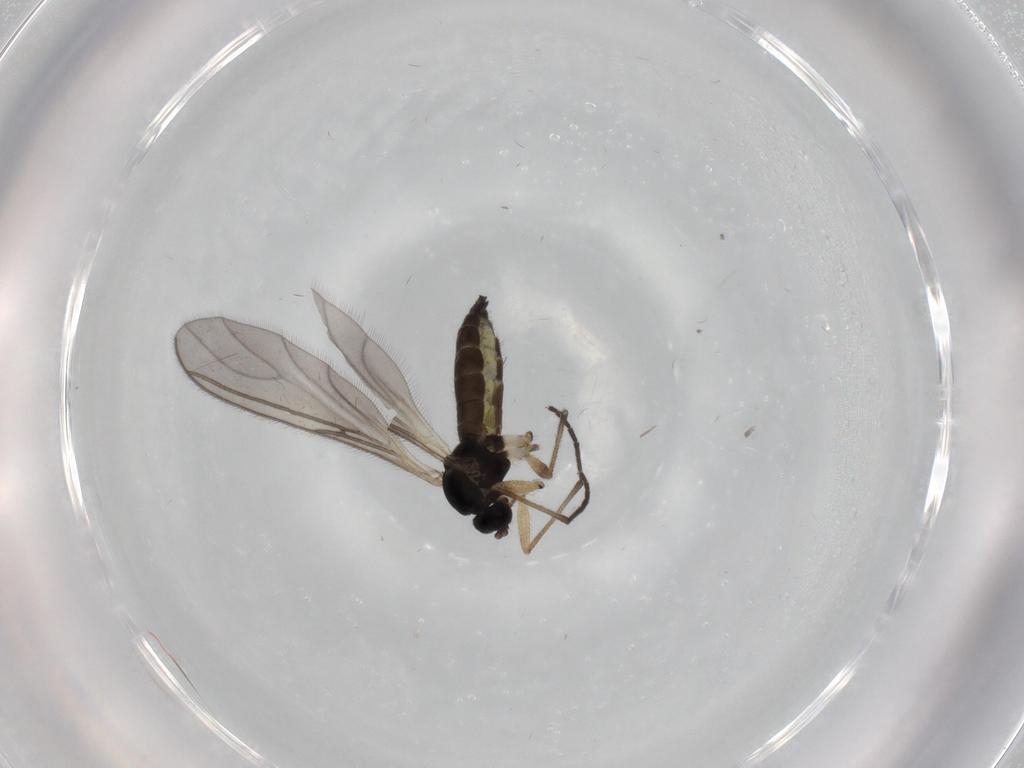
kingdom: Animalia
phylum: Arthropoda
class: Insecta
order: Diptera
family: Sciaridae
